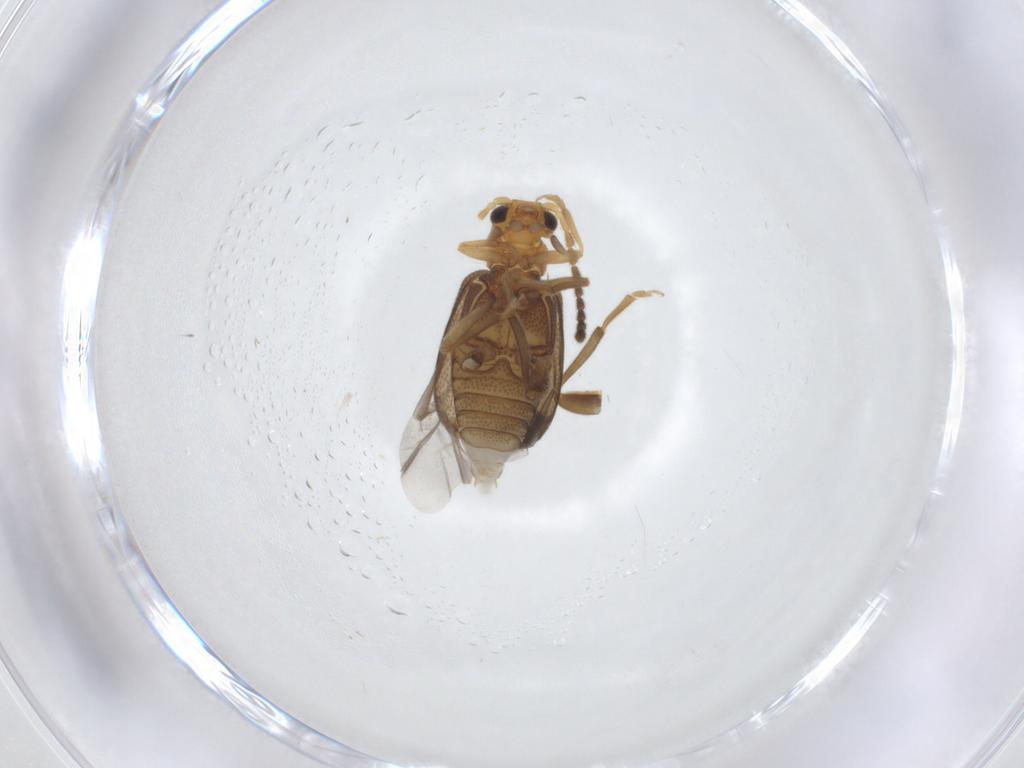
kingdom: Animalia
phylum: Arthropoda
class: Insecta
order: Coleoptera
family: Aderidae
